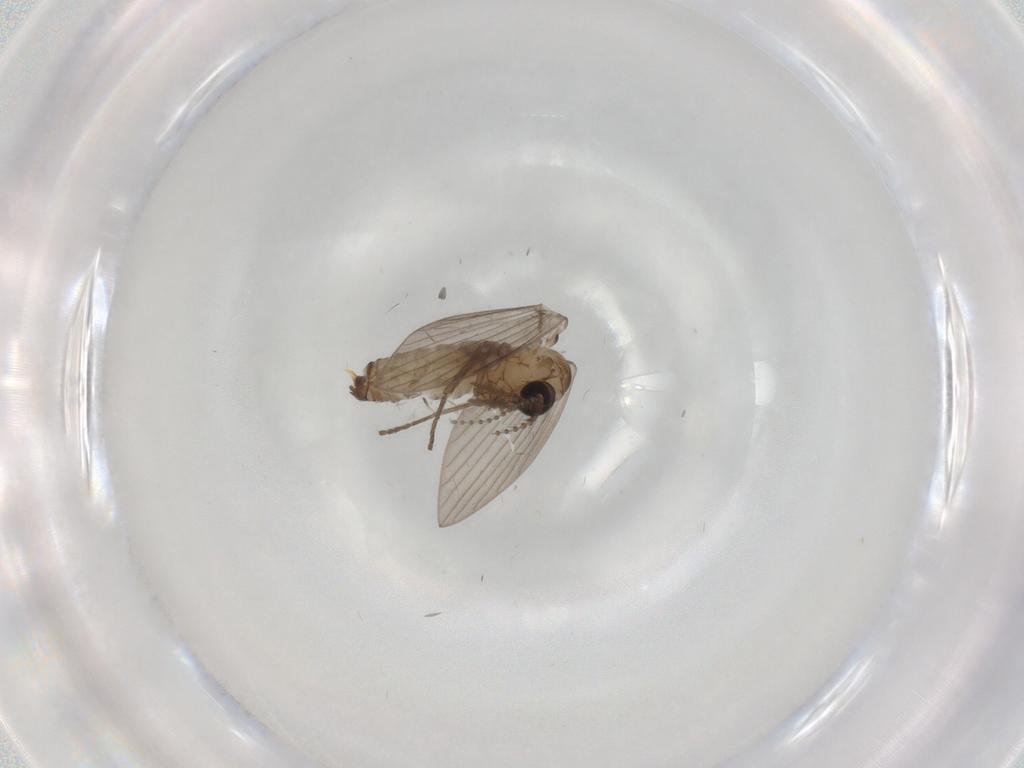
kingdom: Animalia
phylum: Arthropoda
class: Insecta
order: Diptera
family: Psychodidae
